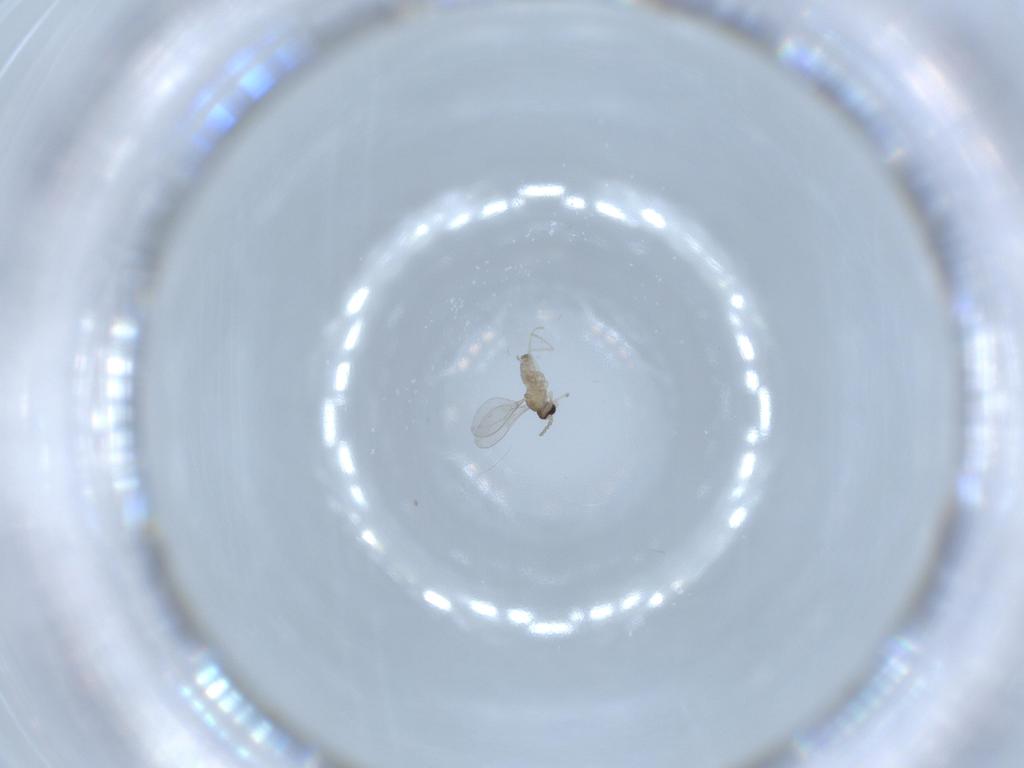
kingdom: Animalia
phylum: Arthropoda
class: Insecta
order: Diptera
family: Cecidomyiidae
